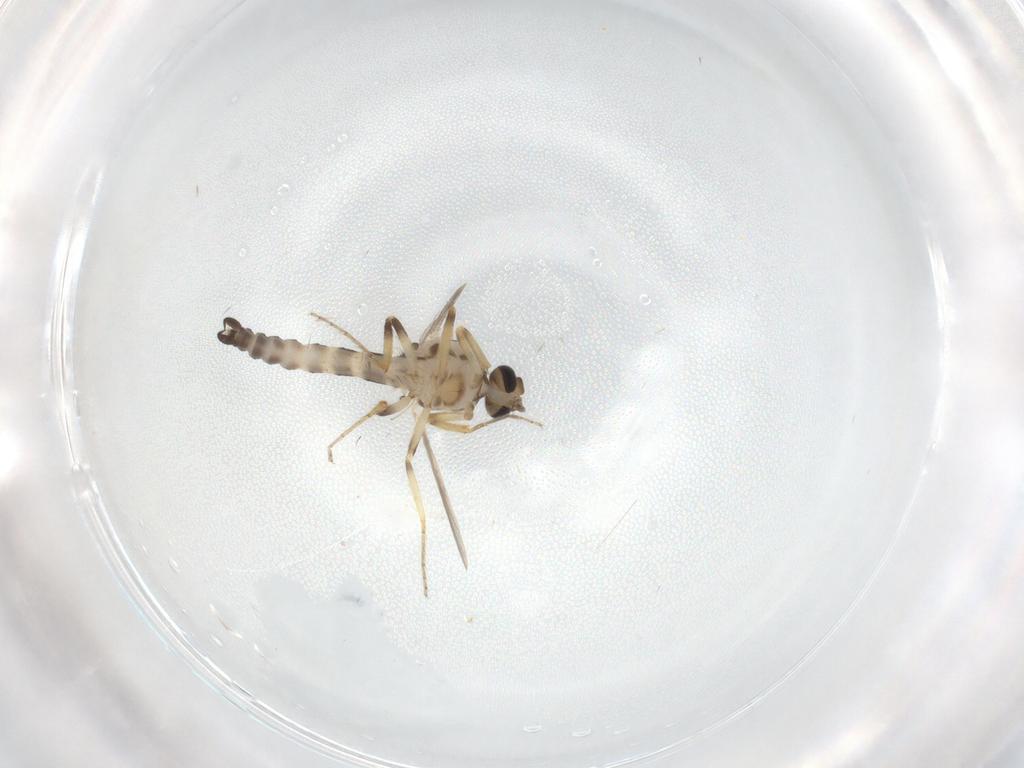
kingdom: Animalia
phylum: Arthropoda
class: Insecta
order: Diptera
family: Ceratopogonidae
